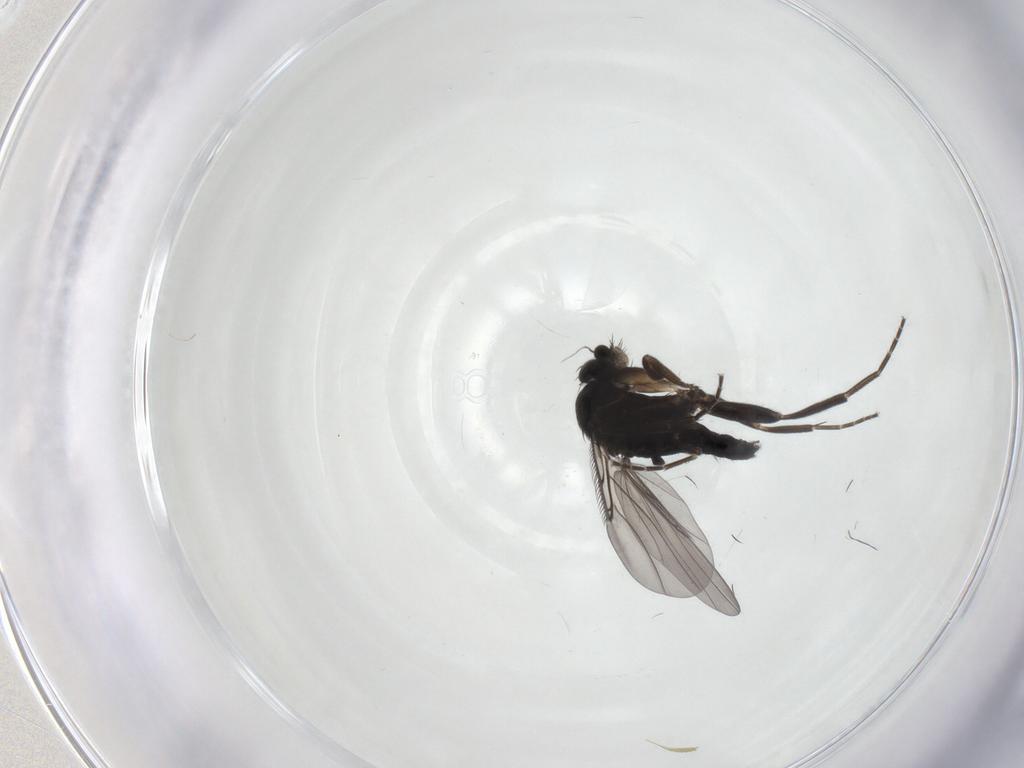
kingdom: Animalia
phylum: Arthropoda
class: Insecta
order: Diptera
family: Phoridae
